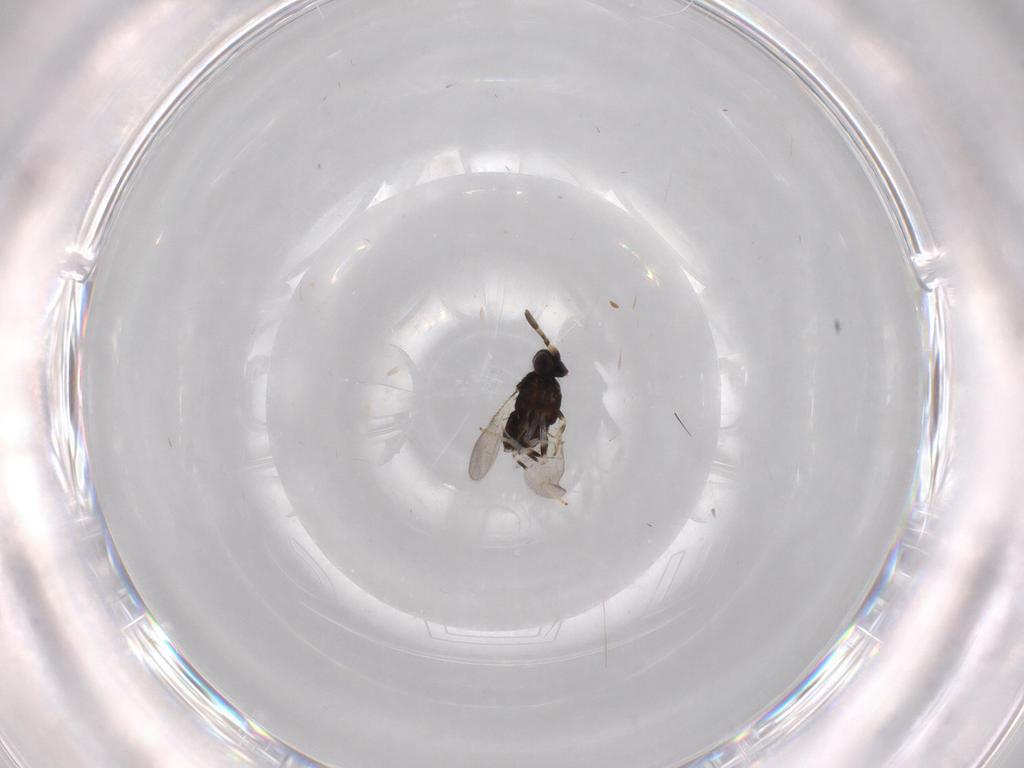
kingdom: Animalia
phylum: Arthropoda
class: Insecta
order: Hymenoptera
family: Encyrtidae
